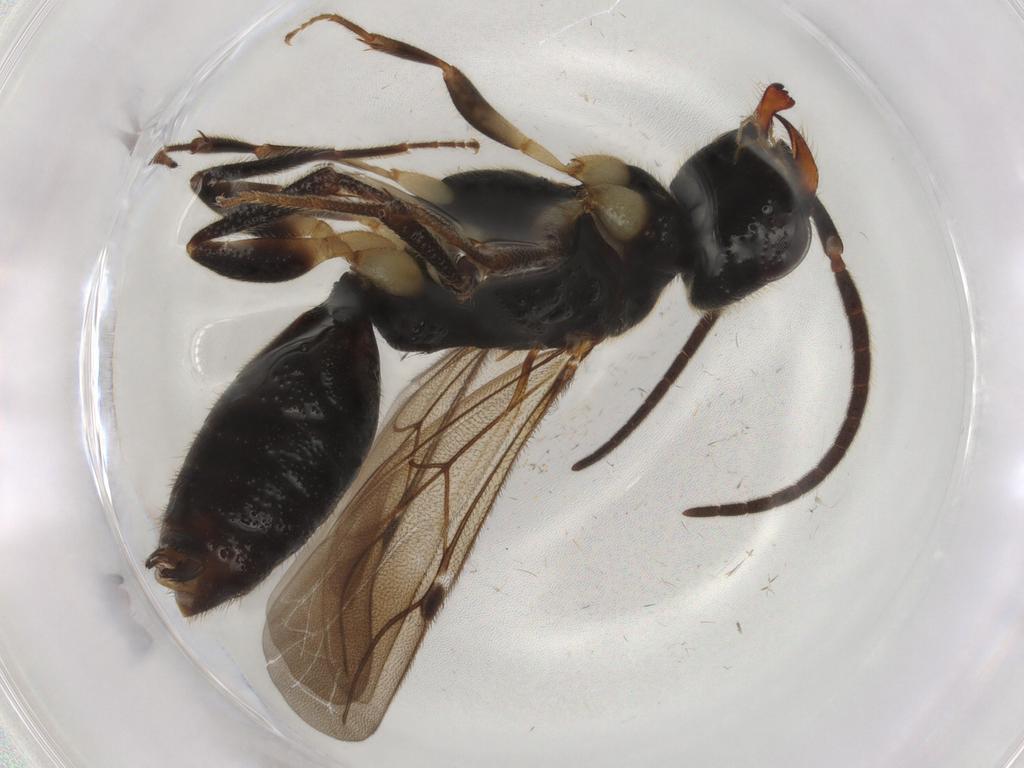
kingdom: Animalia
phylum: Arthropoda
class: Insecta
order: Hymenoptera
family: Bethylidae
